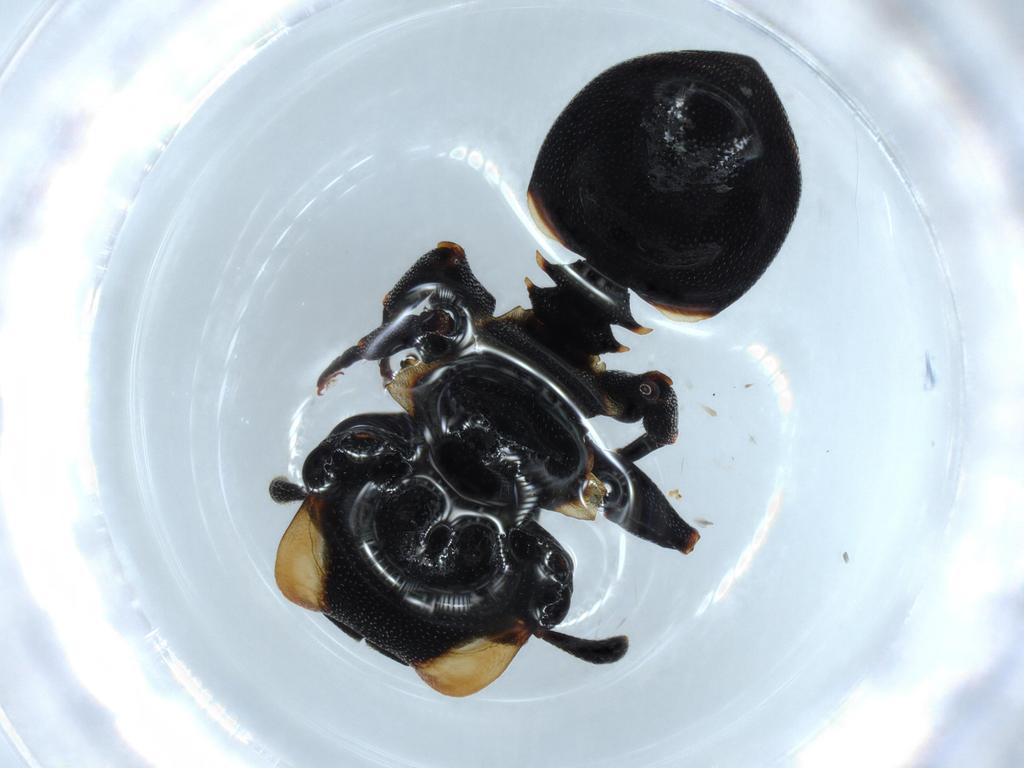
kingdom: Animalia
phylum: Arthropoda
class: Insecta
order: Hymenoptera
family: Formicidae
